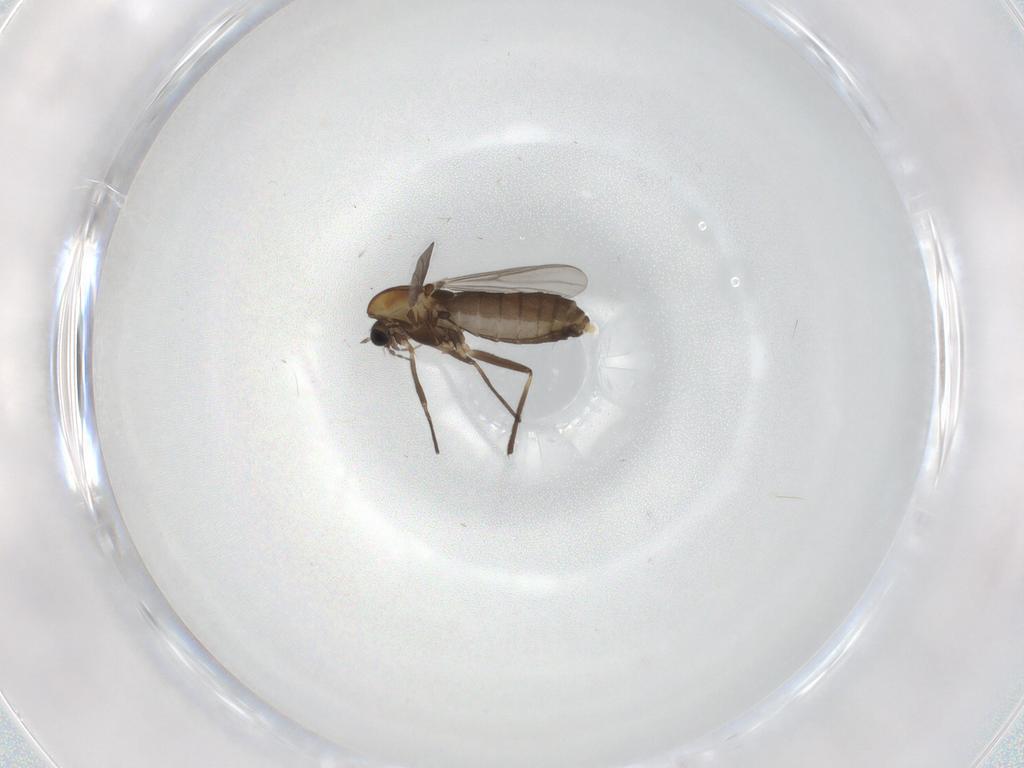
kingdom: Animalia
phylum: Arthropoda
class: Insecta
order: Diptera
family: Chironomidae
